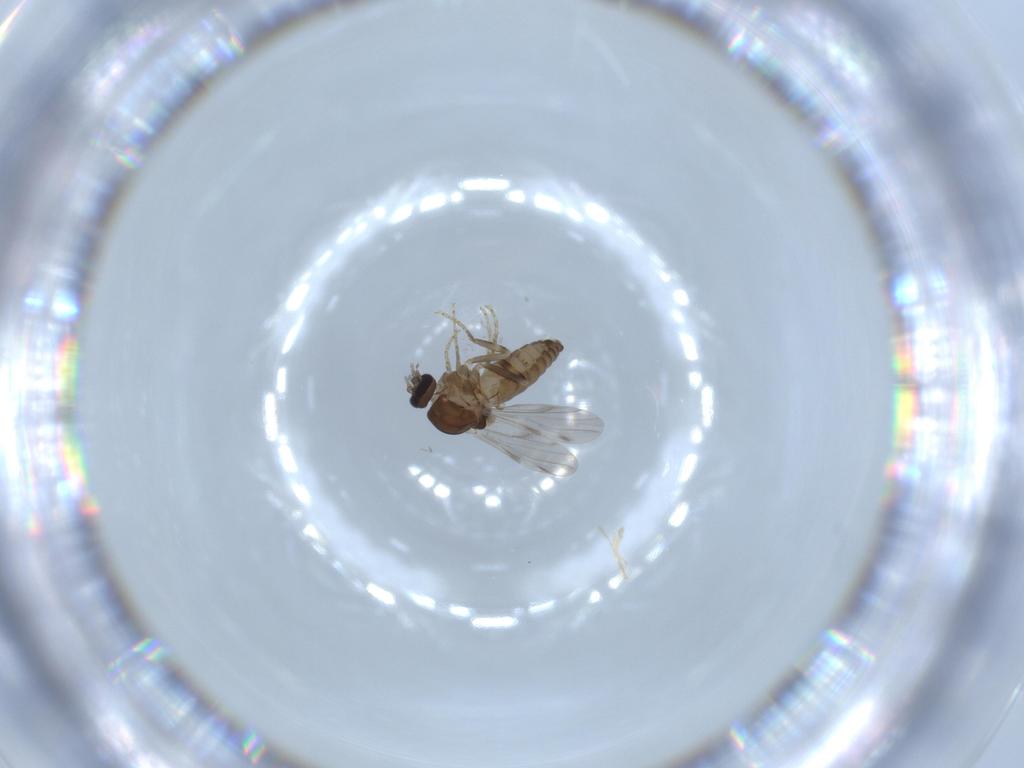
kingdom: Animalia
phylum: Arthropoda
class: Insecta
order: Diptera
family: Ceratopogonidae
